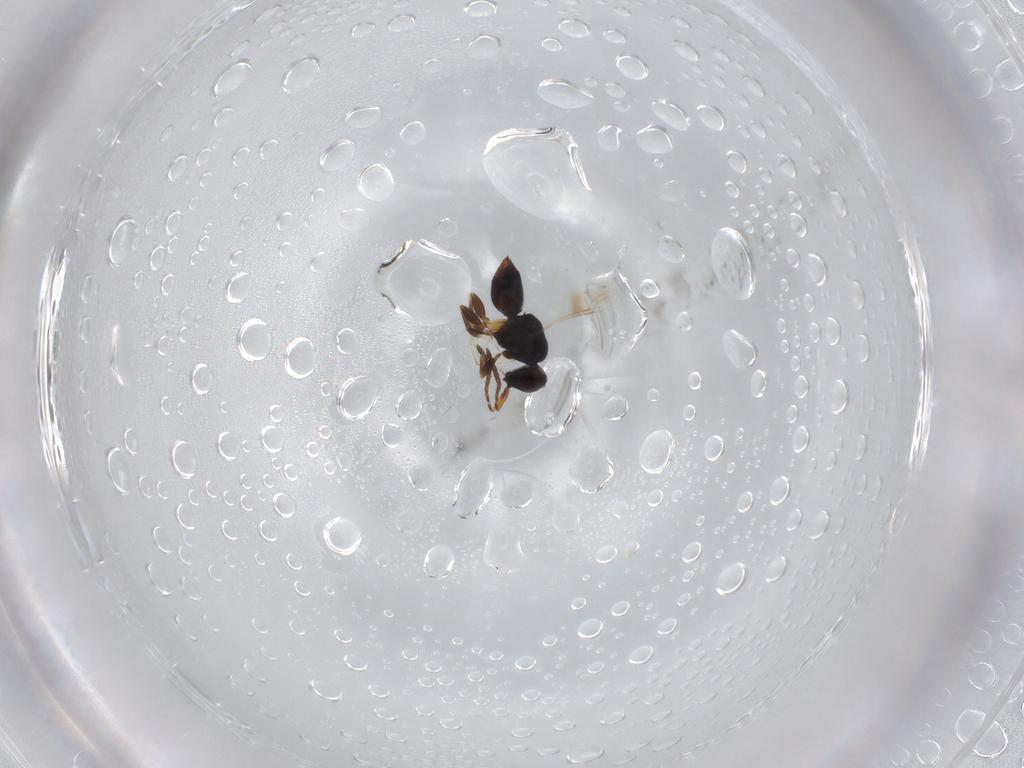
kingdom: Animalia
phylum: Arthropoda
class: Insecta
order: Hymenoptera
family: Ceraphronidae
